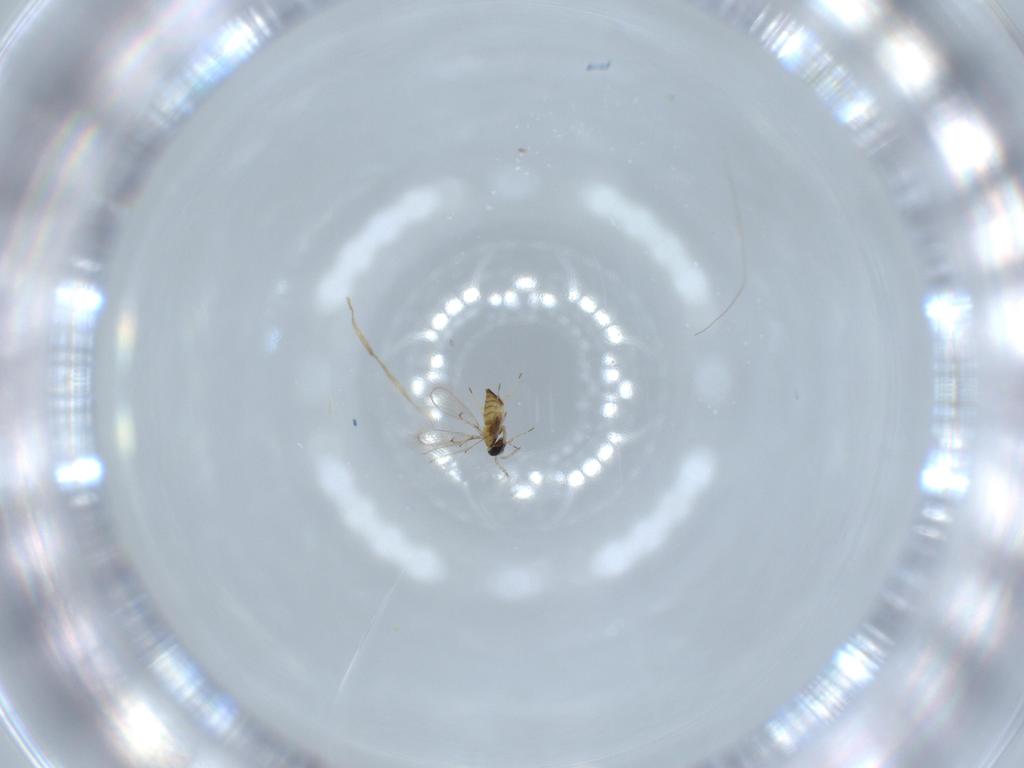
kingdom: Animalia
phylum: Arthropoda
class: Insecta
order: Hymenoptera
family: Trichogrammatidae
